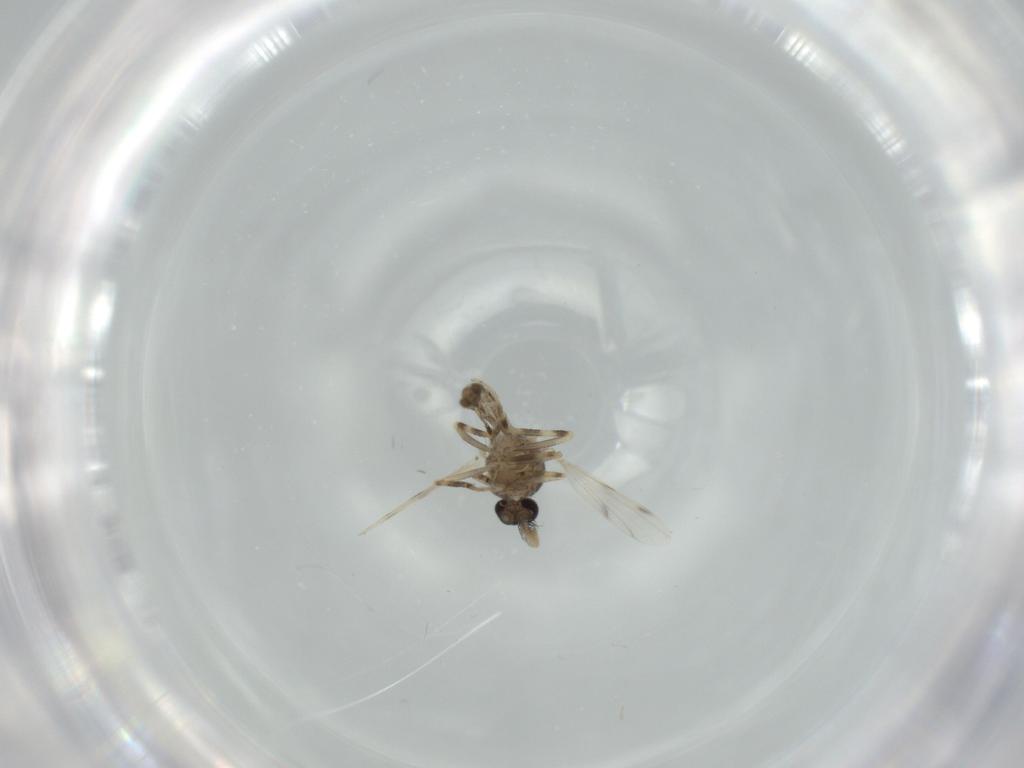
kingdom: Animalia
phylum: Arthropoda
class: Insecta
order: Diptera
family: Ceratopogonidae
